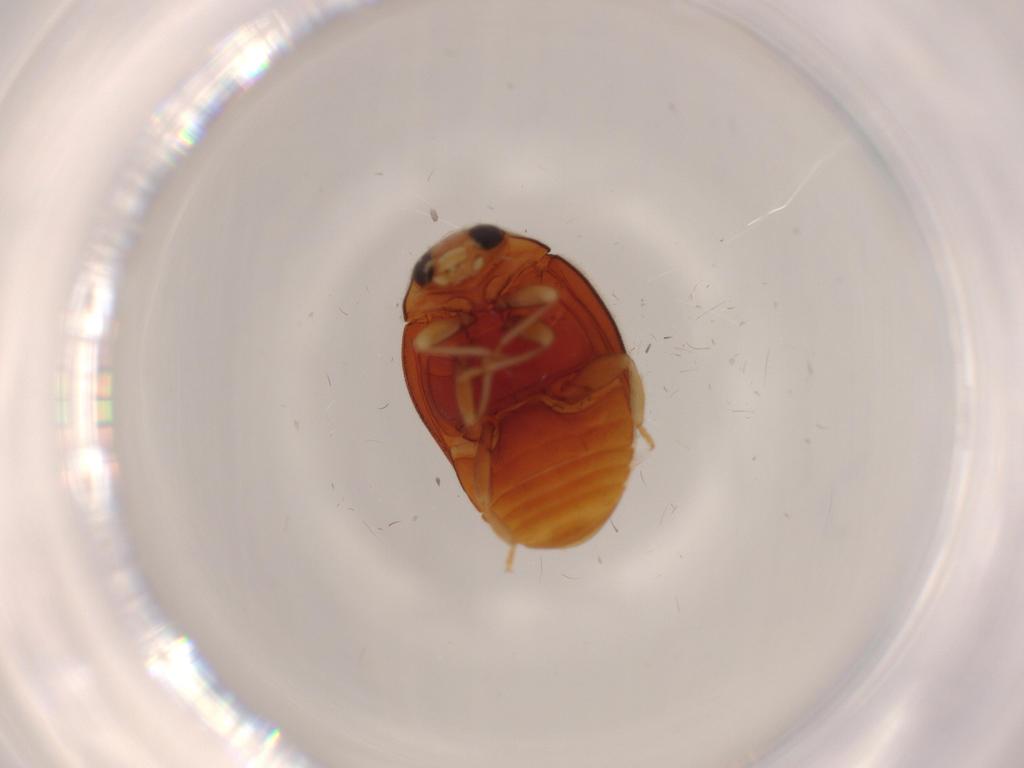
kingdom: Animalia
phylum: Arthropoda
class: Insecta
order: Coleoptera
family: Coccinellidae
